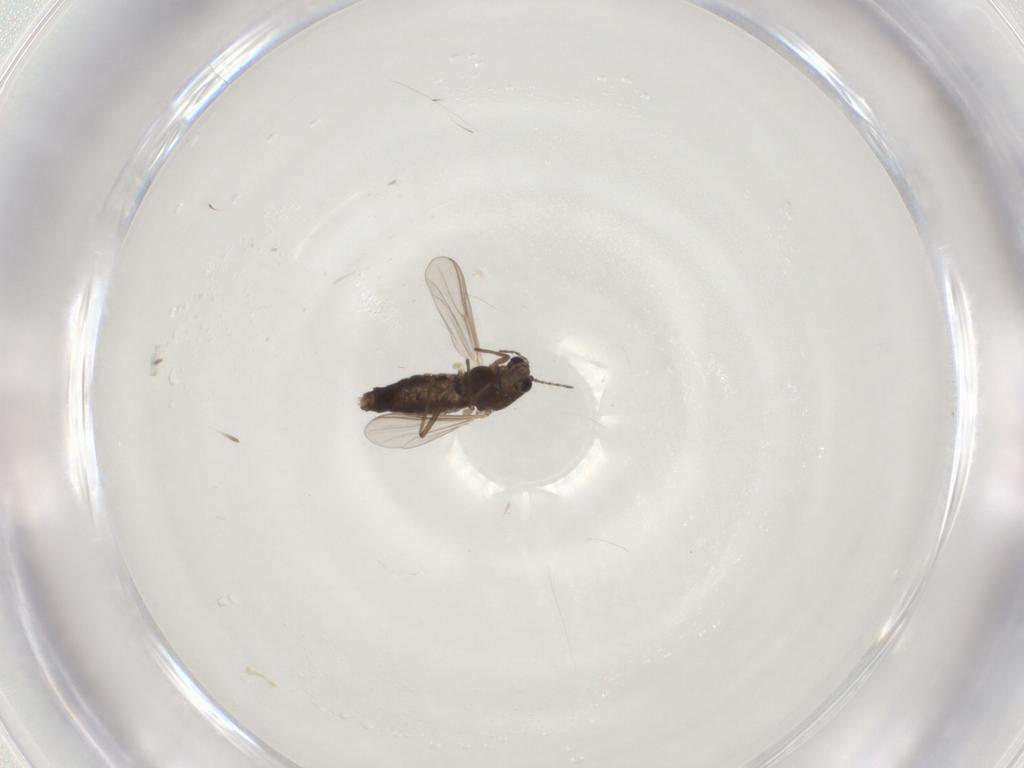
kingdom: Animalia
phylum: Arthropoda
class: Insecta
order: Diptera
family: Chironomidae
